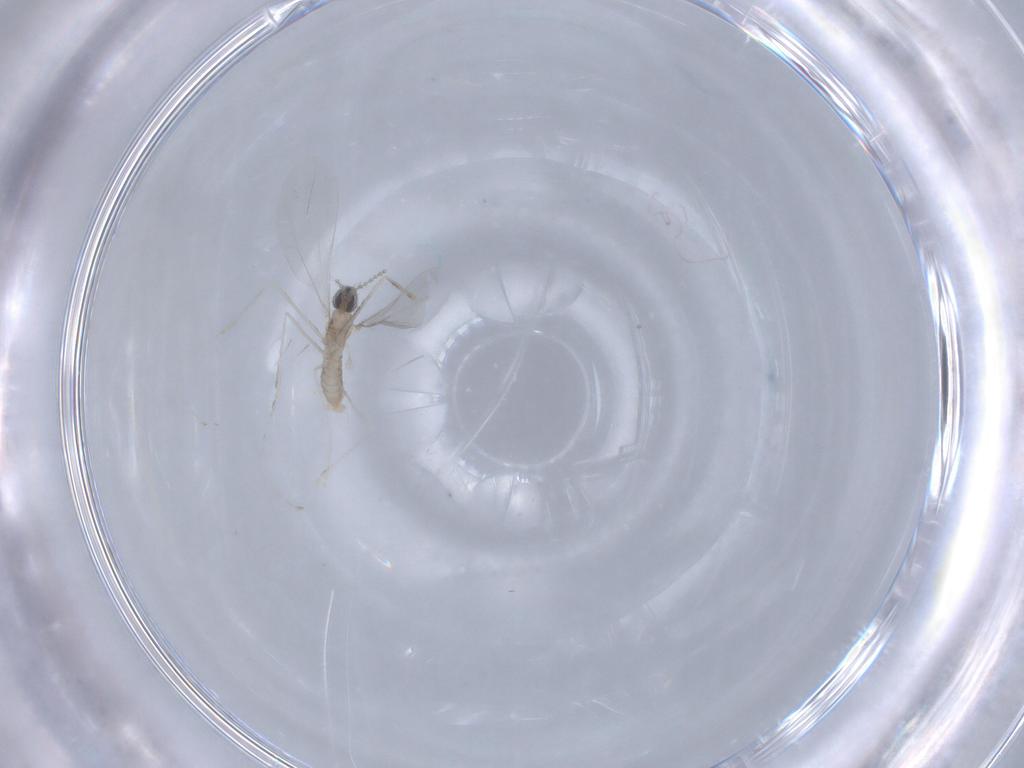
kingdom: Animalia
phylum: Arthropoda
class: Insecta
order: Diptera
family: Cecidomyiidae
